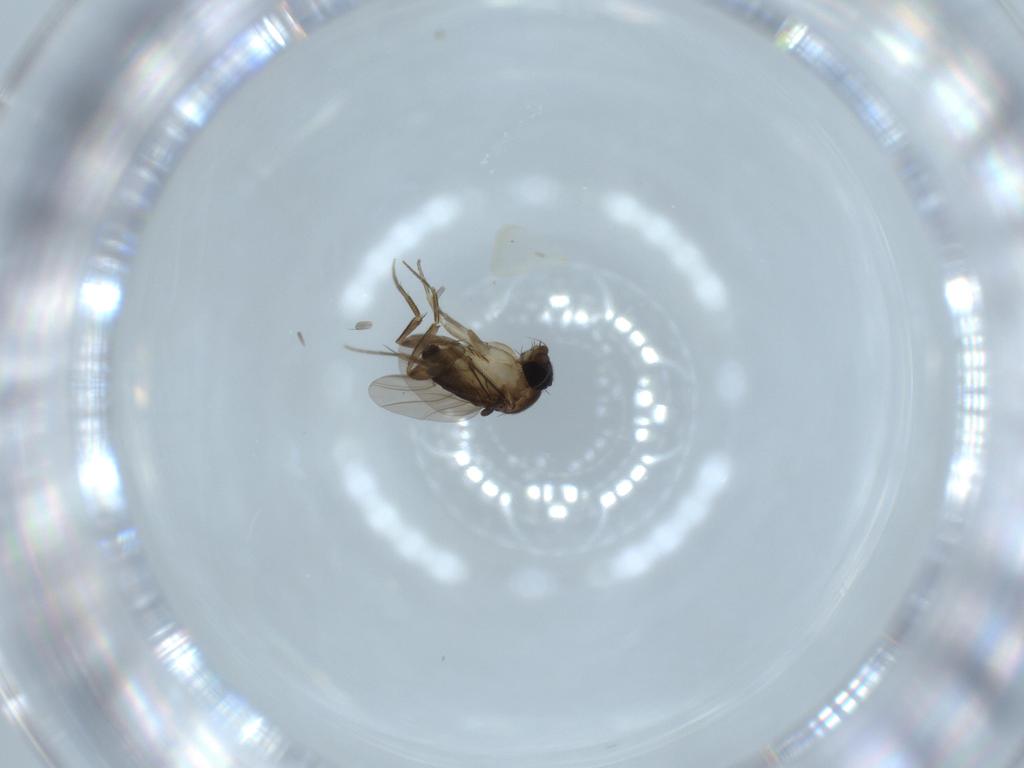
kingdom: Animalia
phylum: Arthropoda
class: Insecta
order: Diptera
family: Phoridae
